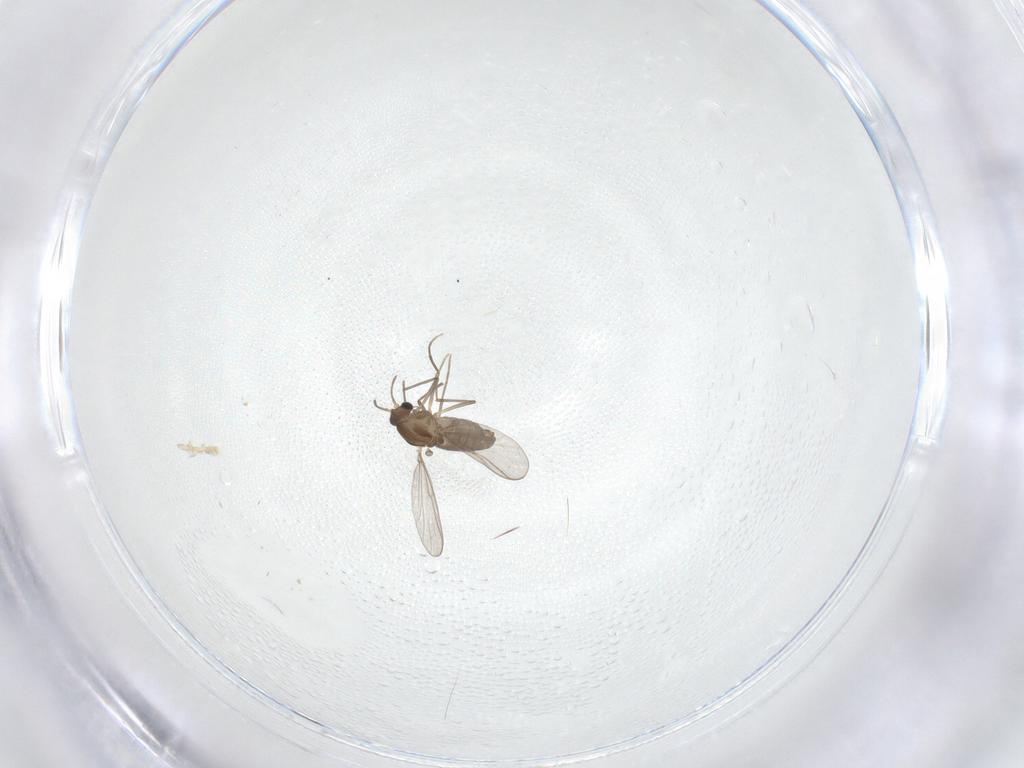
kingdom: Animalia
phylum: Arthropoda
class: Insecta
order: Diptera
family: Chironomidae
